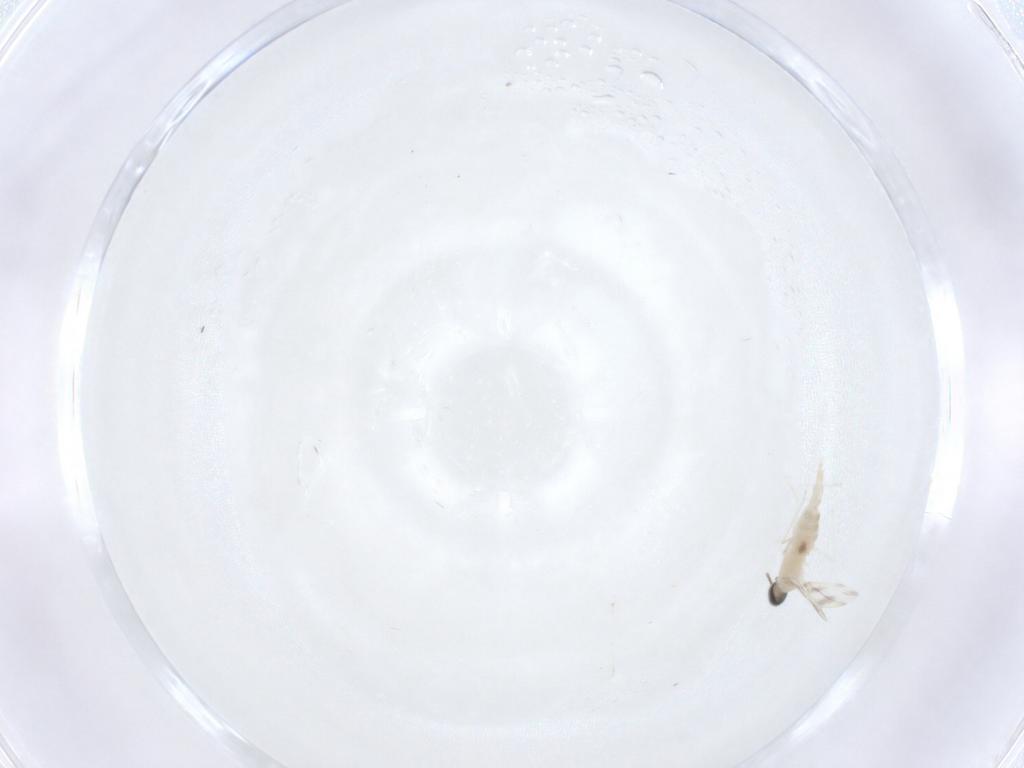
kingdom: Animalia
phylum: Arthropoda
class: Insecta
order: Diptera
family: Cecidomyiidae
